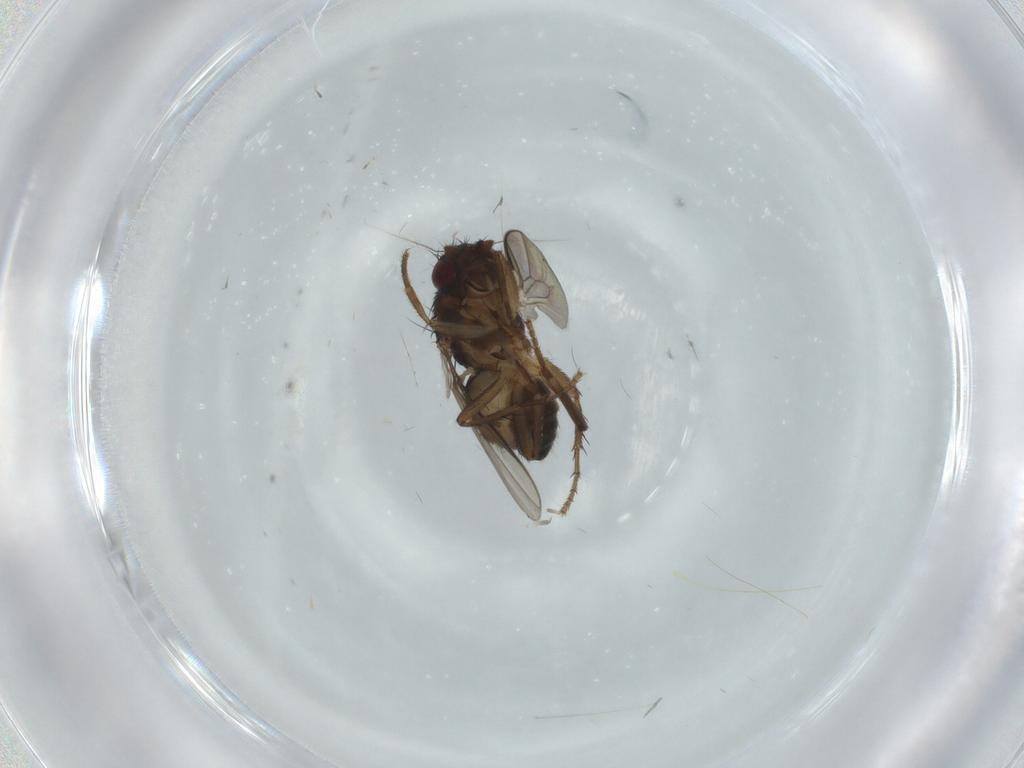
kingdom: Animalia
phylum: Arthropoda
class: Insecta
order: Diptera
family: Sphaeroceridae
